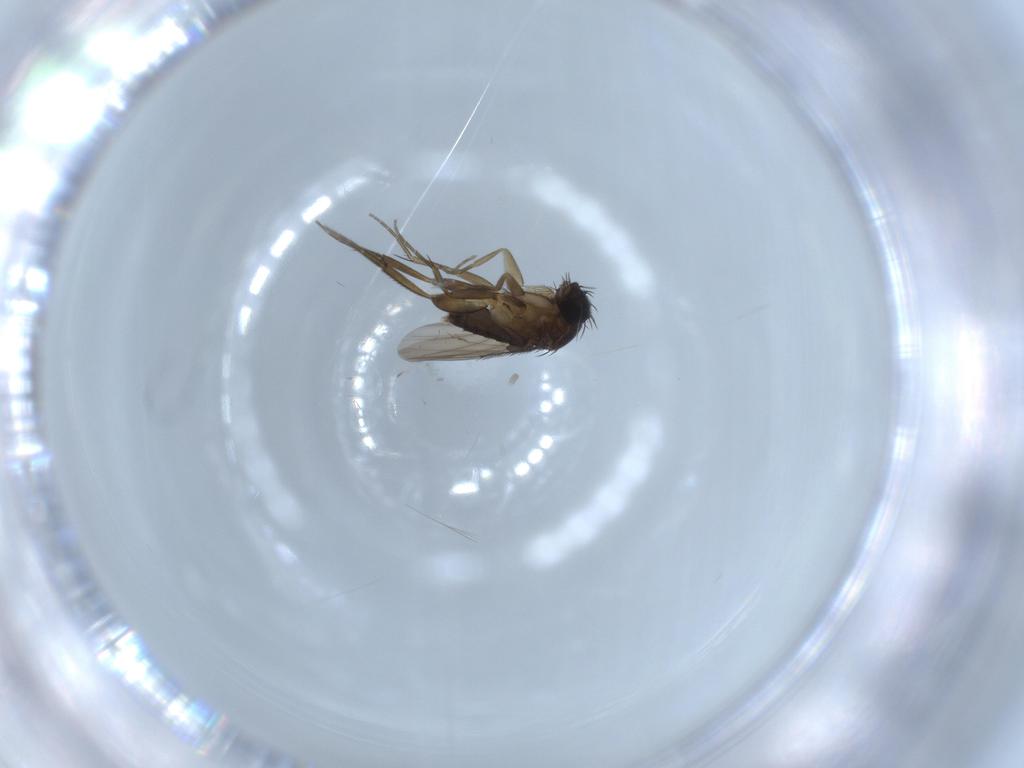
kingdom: Animalia
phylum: Arthropoda
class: Insecta
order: Diptera
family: Phoridae
